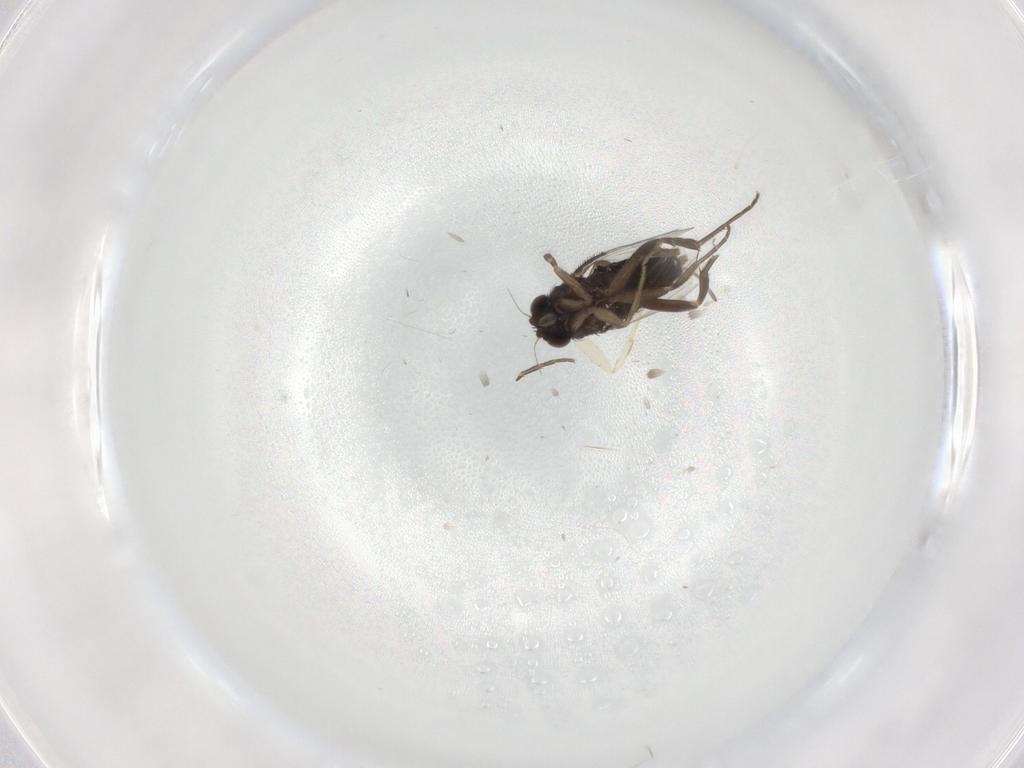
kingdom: Animalia
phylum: Arthropoda
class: Insecta
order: Diptera
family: Phoridae
